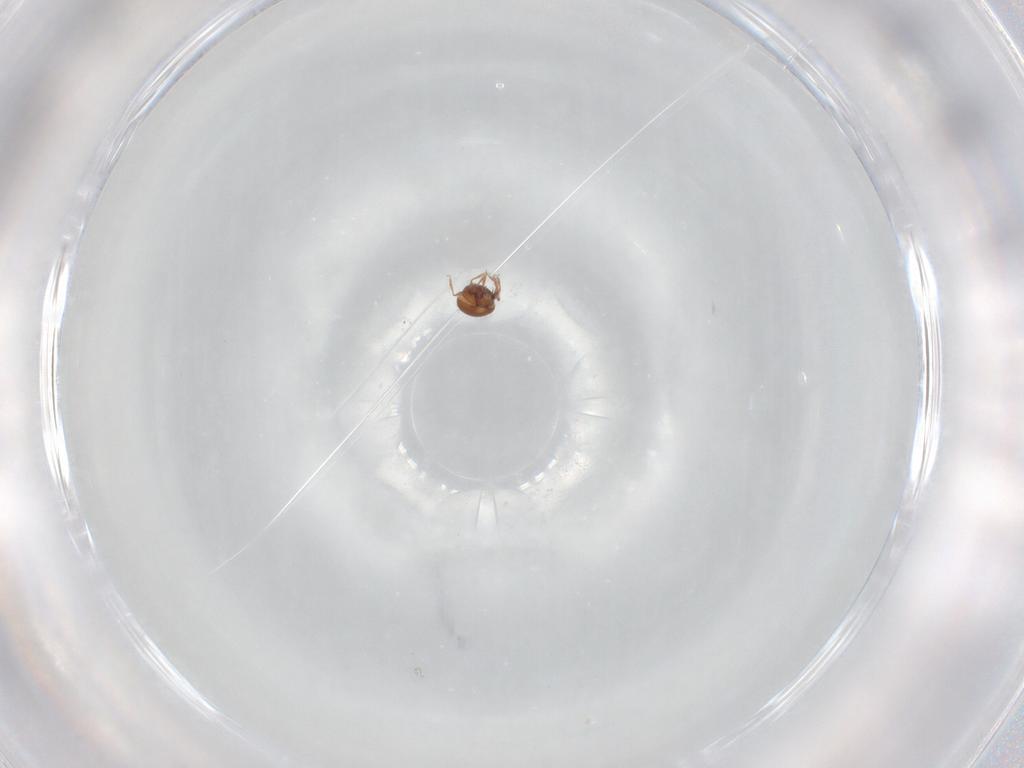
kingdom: Animalia
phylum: Arthropoda
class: Arachnida
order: Sarcoptiformes
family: Oribatulidae
